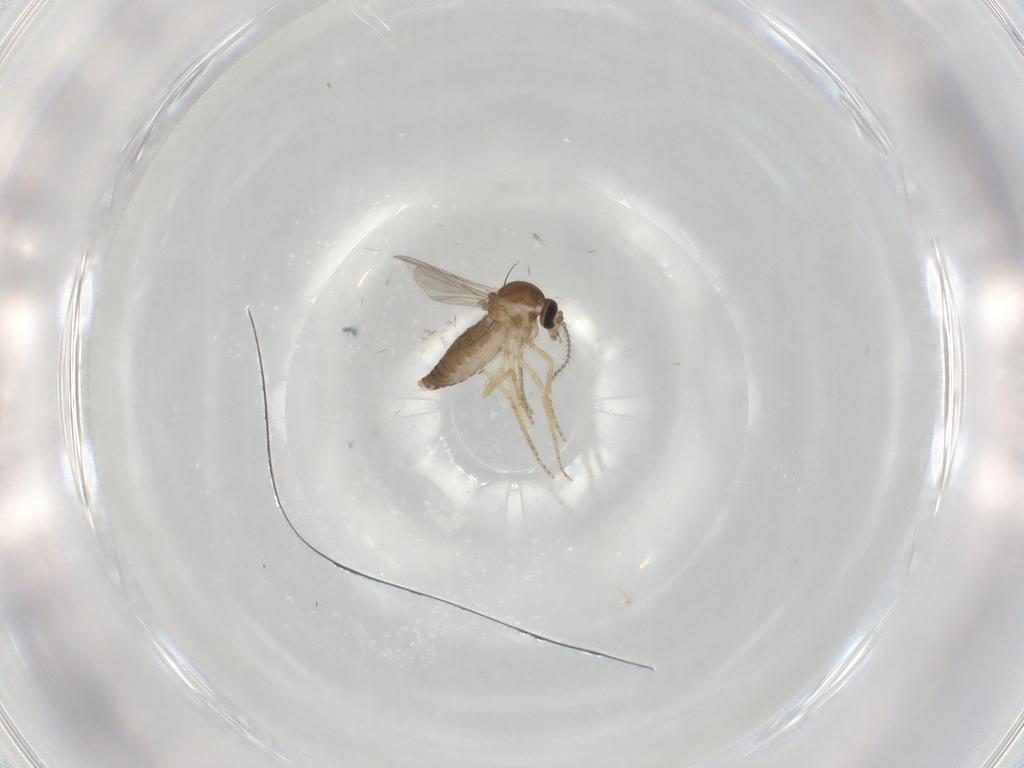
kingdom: Animalia
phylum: Arthropoda
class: Insecta
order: Diptera
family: Ceratopogonidae
